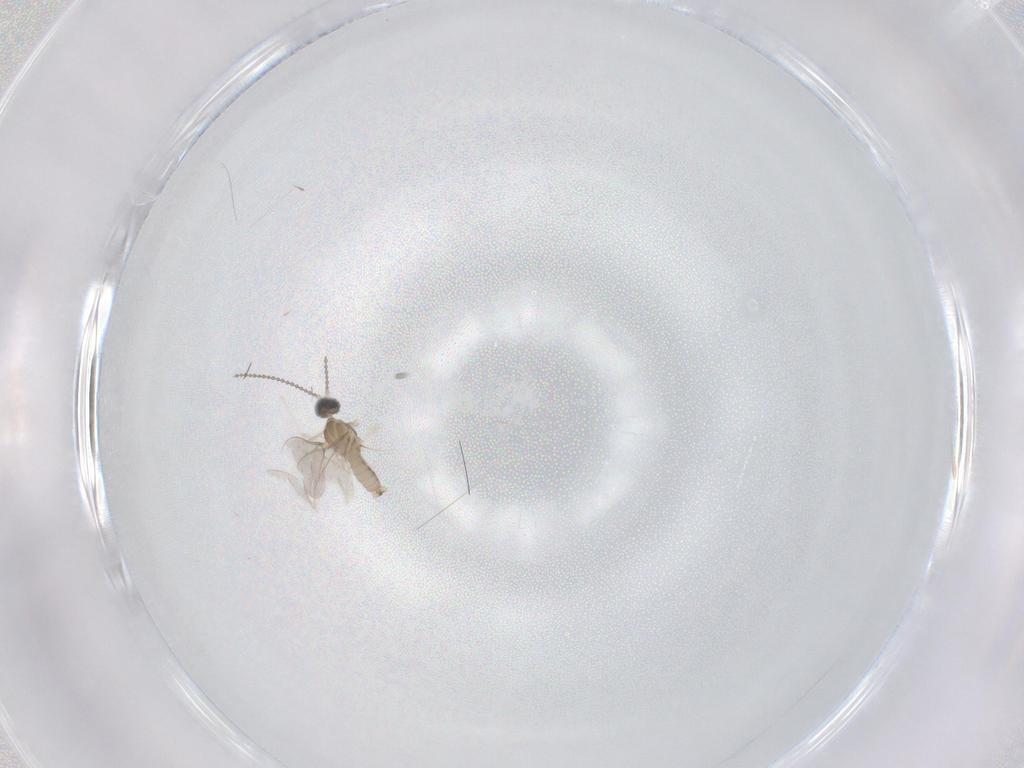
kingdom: Animalia
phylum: Arthropoda
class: Insecta
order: Diptera
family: Cecidomyiidae
